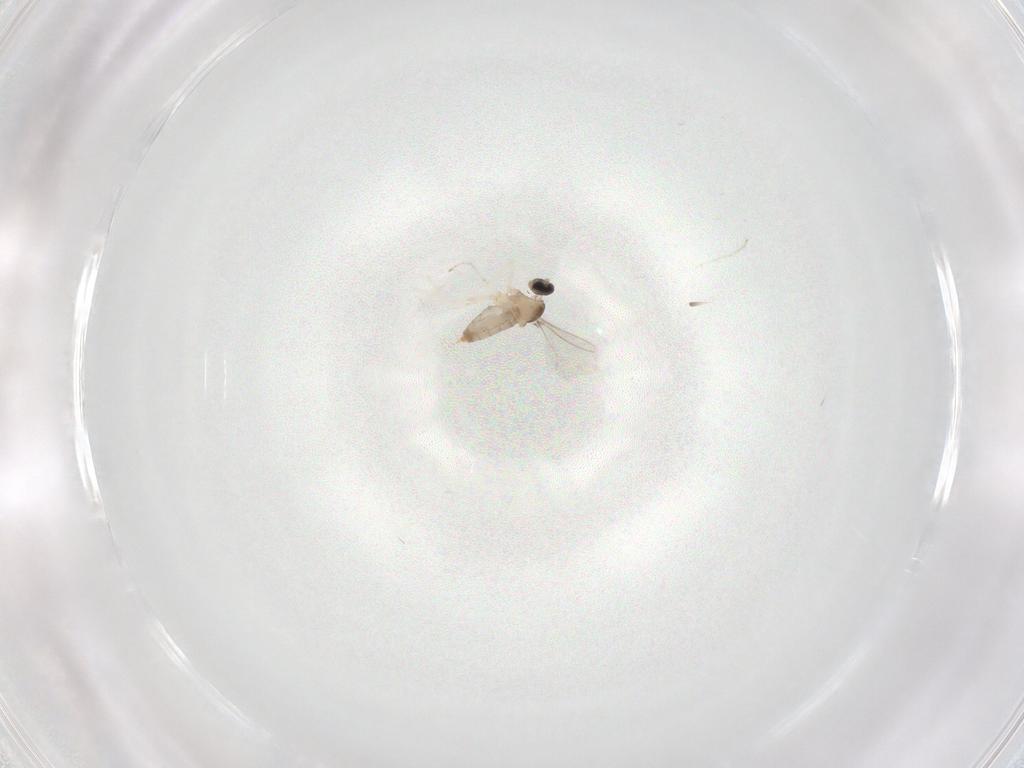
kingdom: Animalia
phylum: Arthropoda
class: Insecta
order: Diptera
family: Cecidomyiidae
